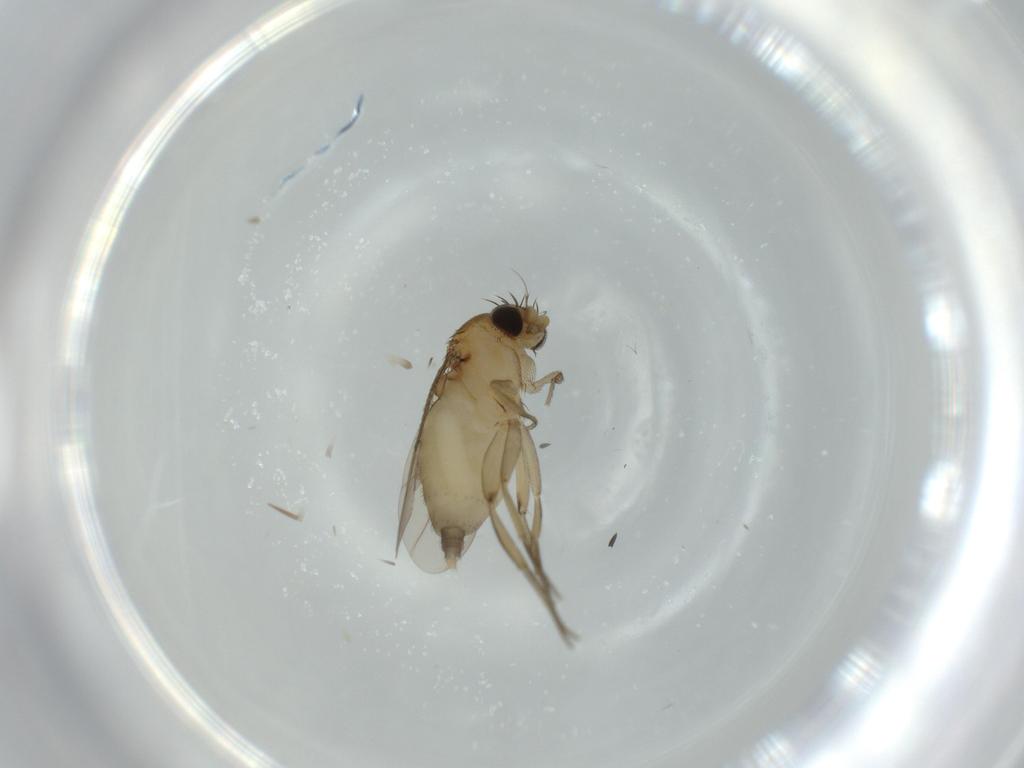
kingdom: Animalia
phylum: Arthropoda
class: Insecta
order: Diptera
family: Phoridae
